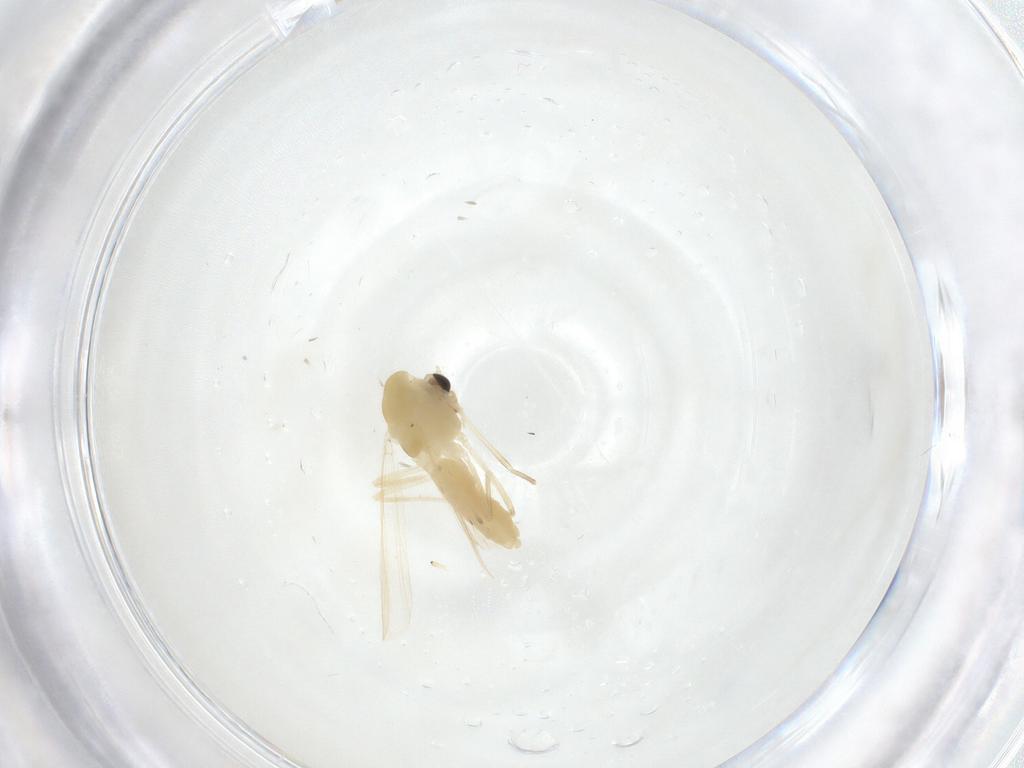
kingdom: Animalia
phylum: Arthropoda
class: Insecta
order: Diptera
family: Chironomidae
